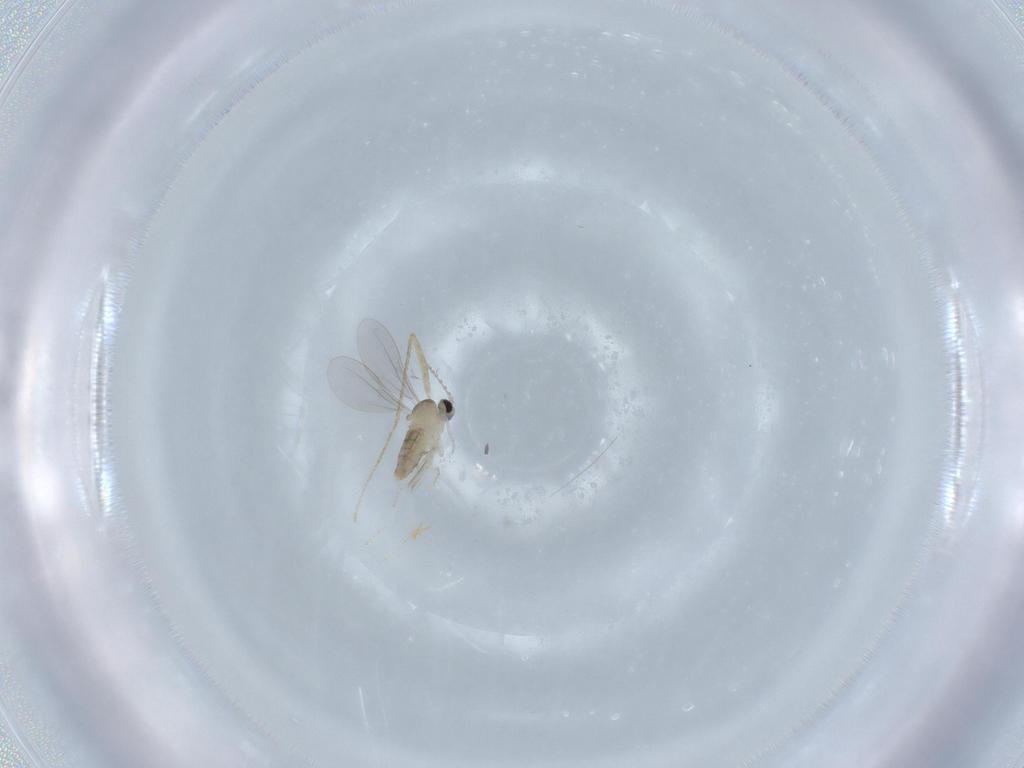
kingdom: Animalia
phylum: Arthropoda
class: Insecta
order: Diptera
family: Cecidomyiidae
